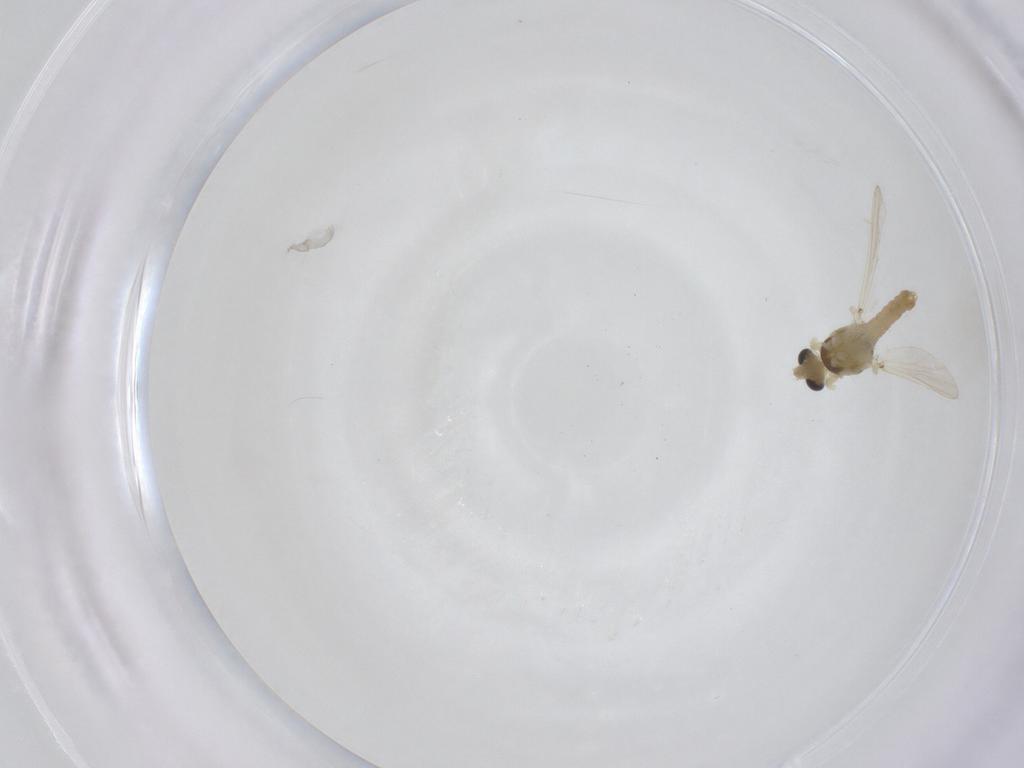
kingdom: Animalia
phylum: Arthropoda
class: Insecta
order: Diptera
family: Chironomidae
